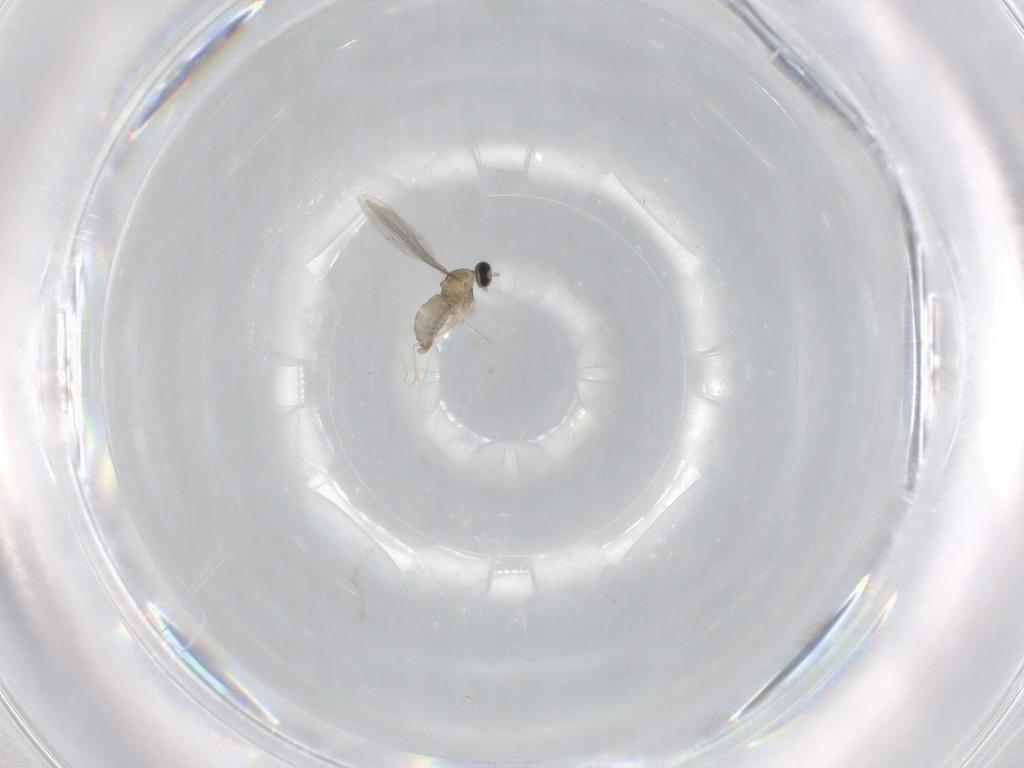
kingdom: Animalia
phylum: Arthropoda
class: Insecta
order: Diptera
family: Cecidomyiidae
